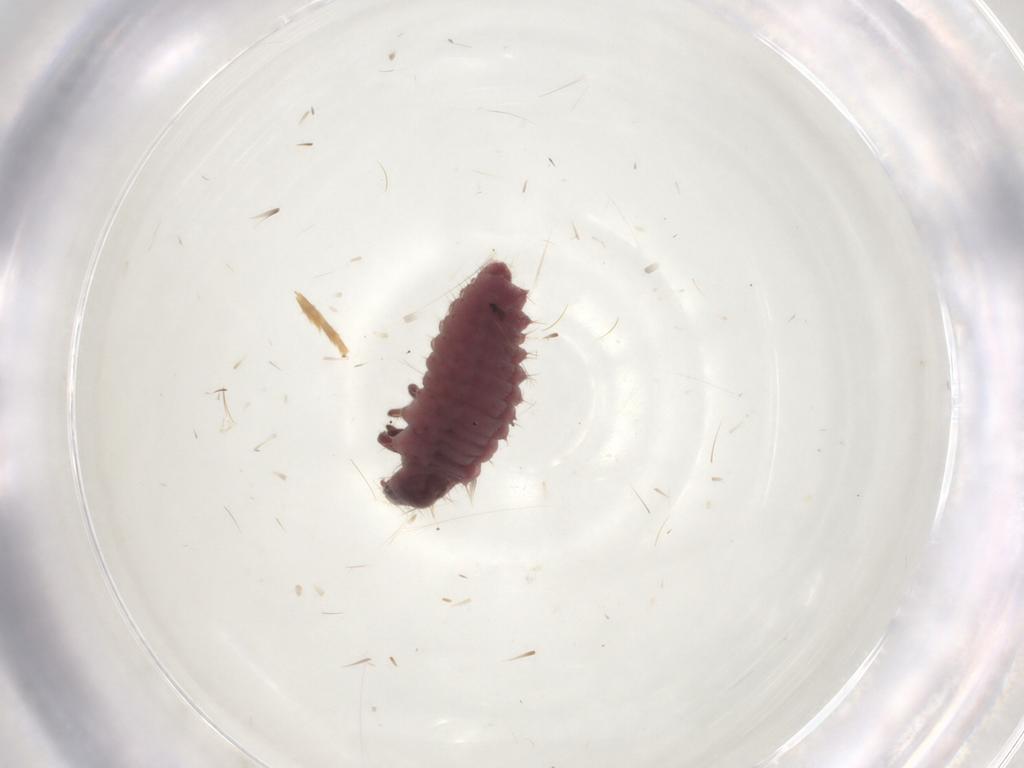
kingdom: Animalia
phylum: Arthropoda
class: Insecta
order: Coleoptera
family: Coccinellidae
